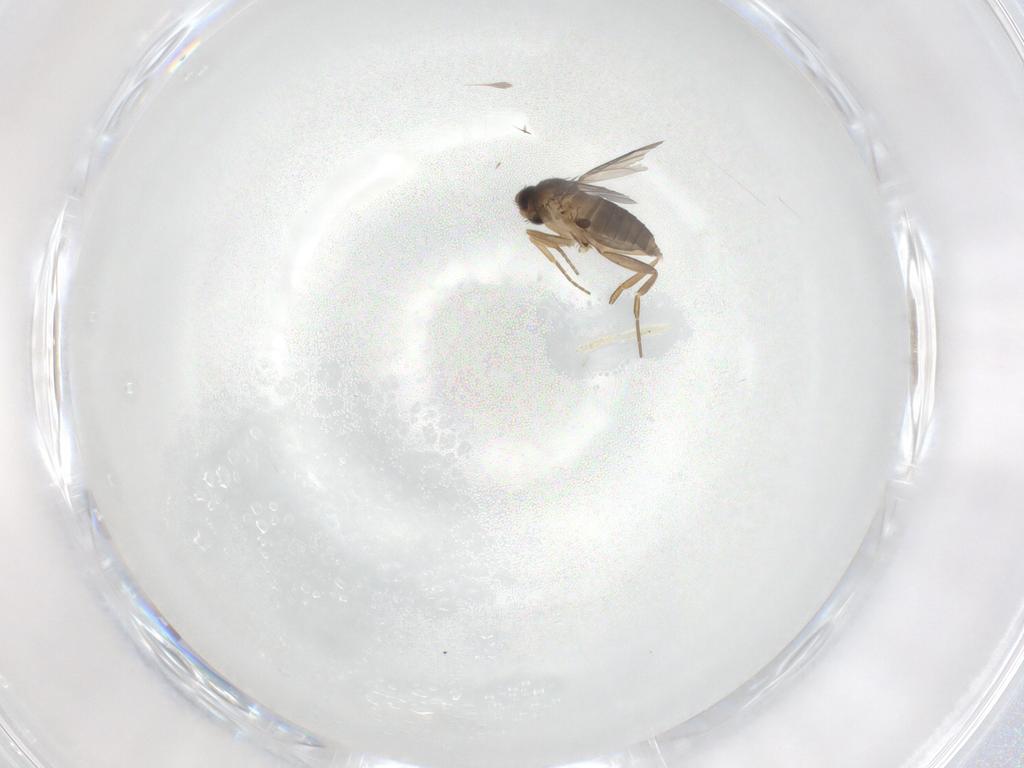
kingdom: Animalia
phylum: Arthropoda
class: Insecta
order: Diptera
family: Phoridae
